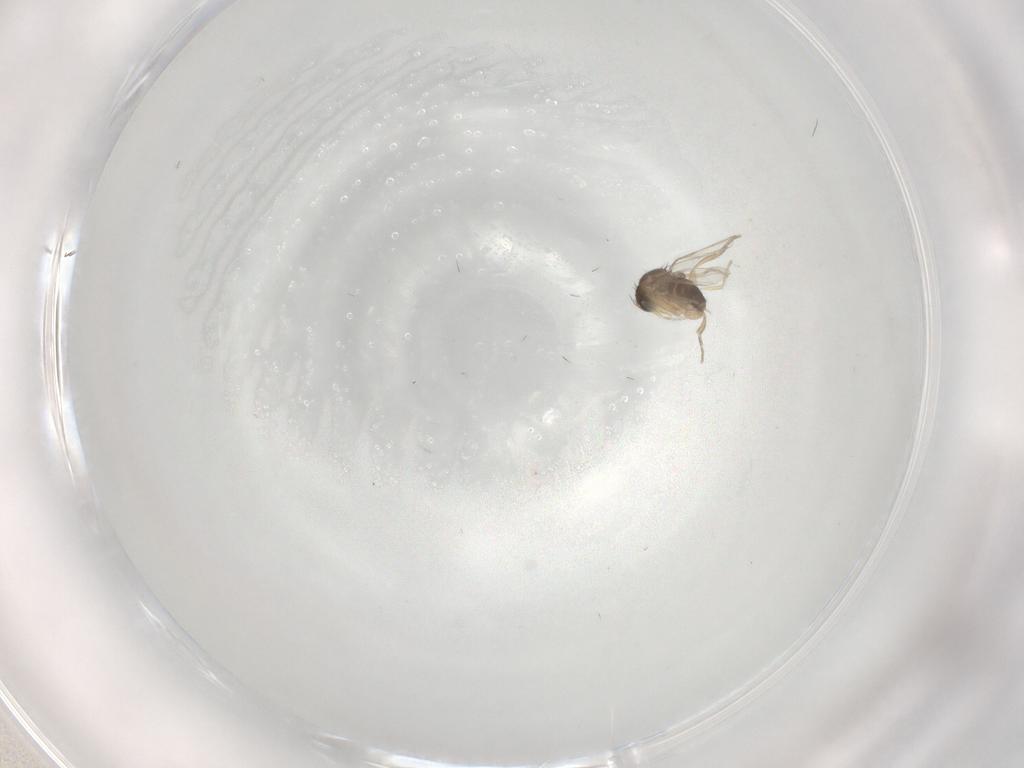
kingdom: Animalia
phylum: Arthropoda
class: Insecta
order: Diptera
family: Phoridae
